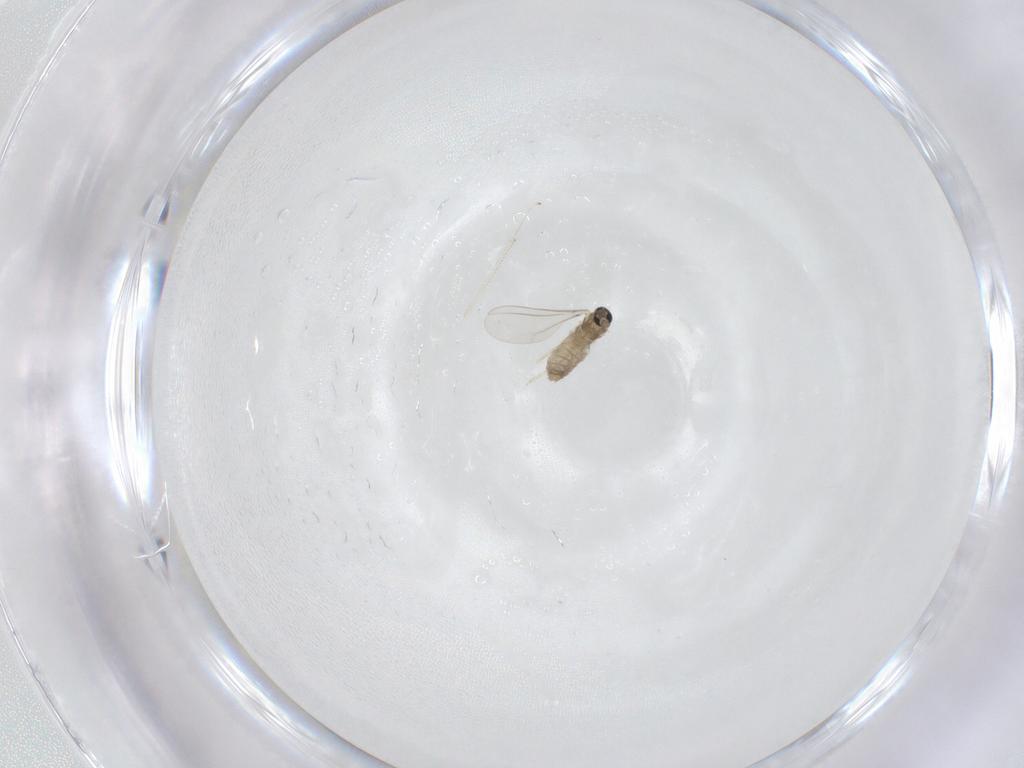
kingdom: Animalia
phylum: Arthropoda
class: Insecta
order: Diptera
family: Cecidomyiidae
